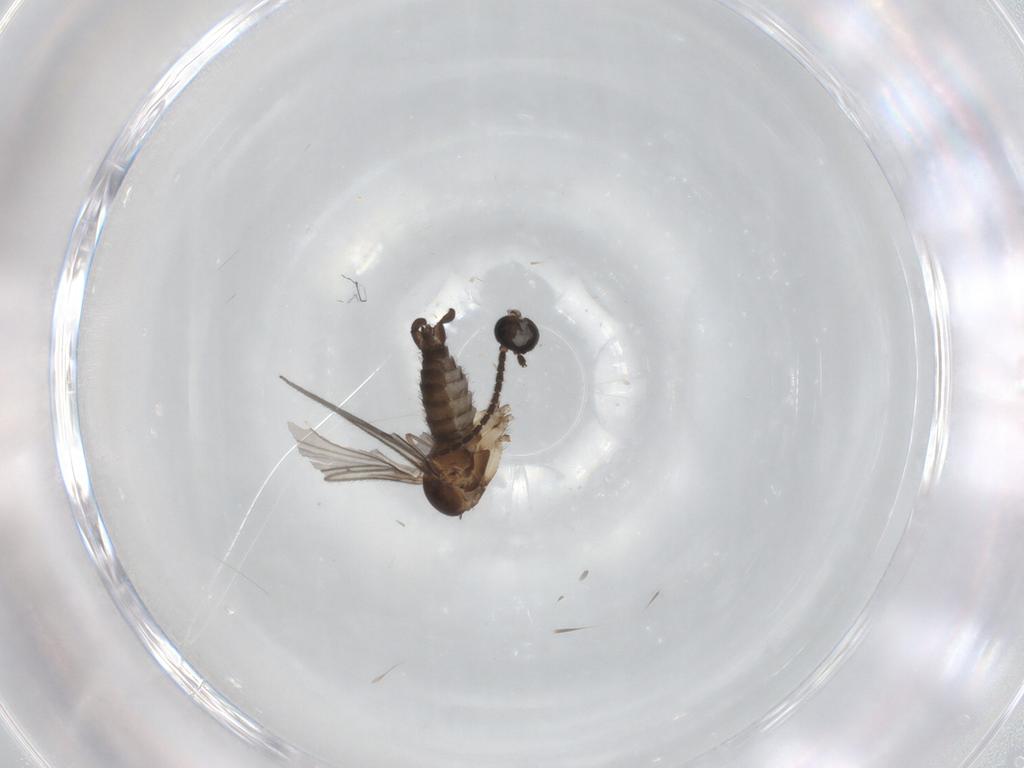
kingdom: Animalia
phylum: Arthropoda
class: Insecta
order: Diptera
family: Sciaridae
